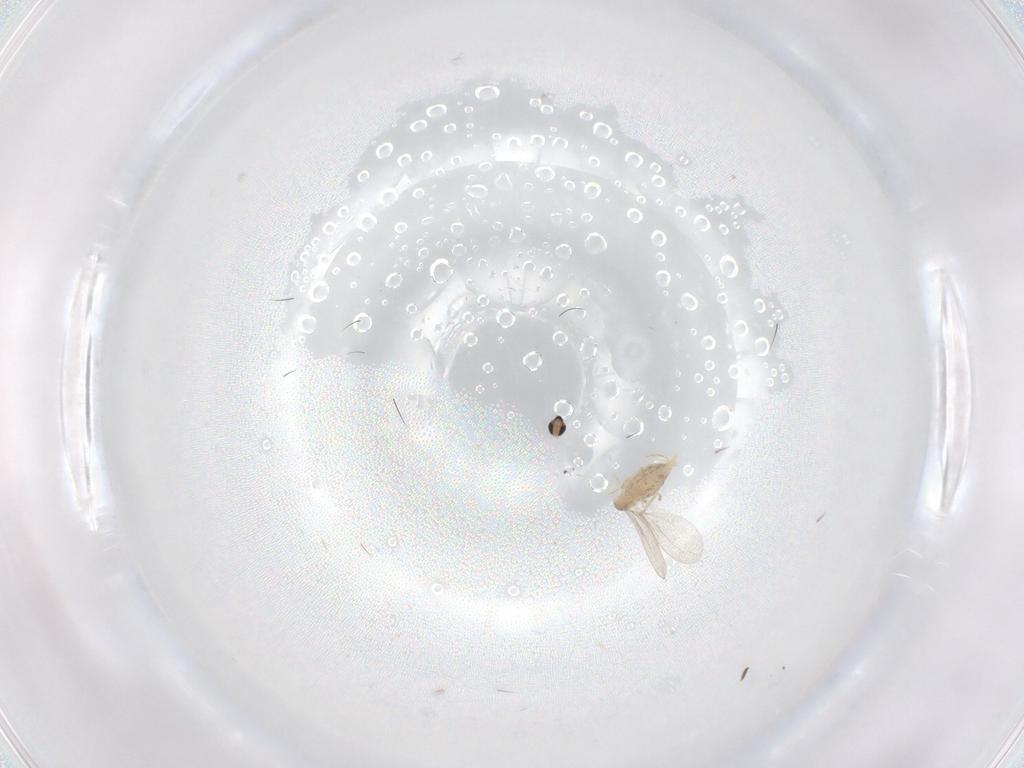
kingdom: Animalia
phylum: Arthropoda
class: Insecta
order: Diptera
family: Cecidomyiidae
